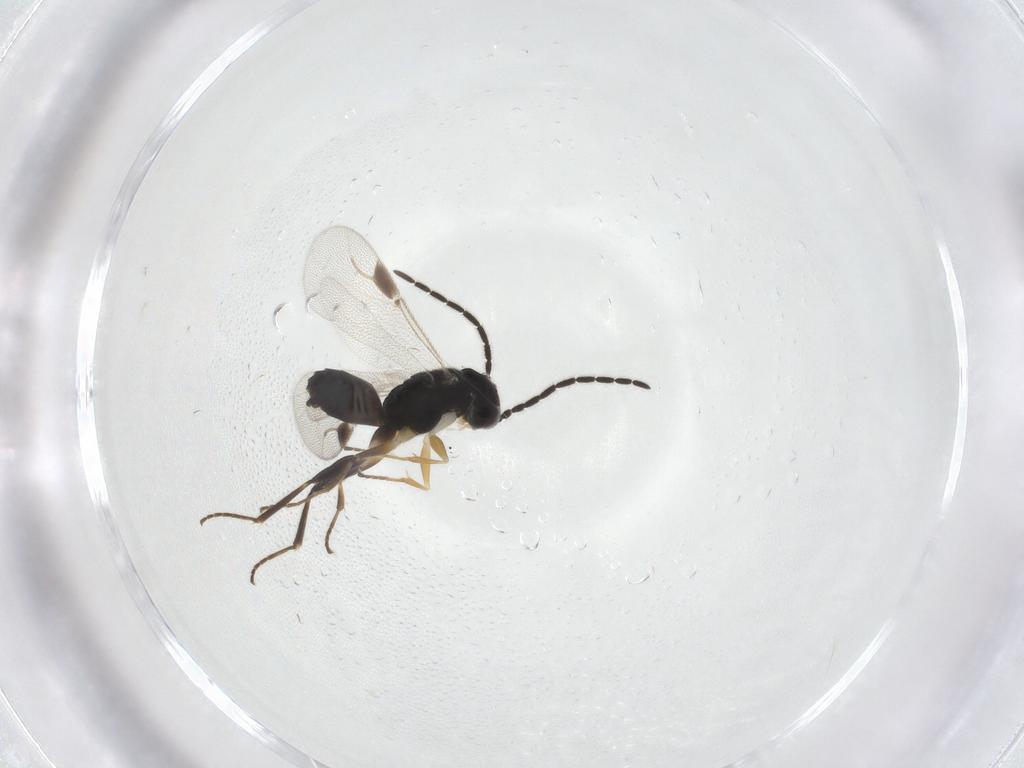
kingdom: Animalia
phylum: Arthropoda
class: Insecta
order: Hymenoptera
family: Dryinidae
